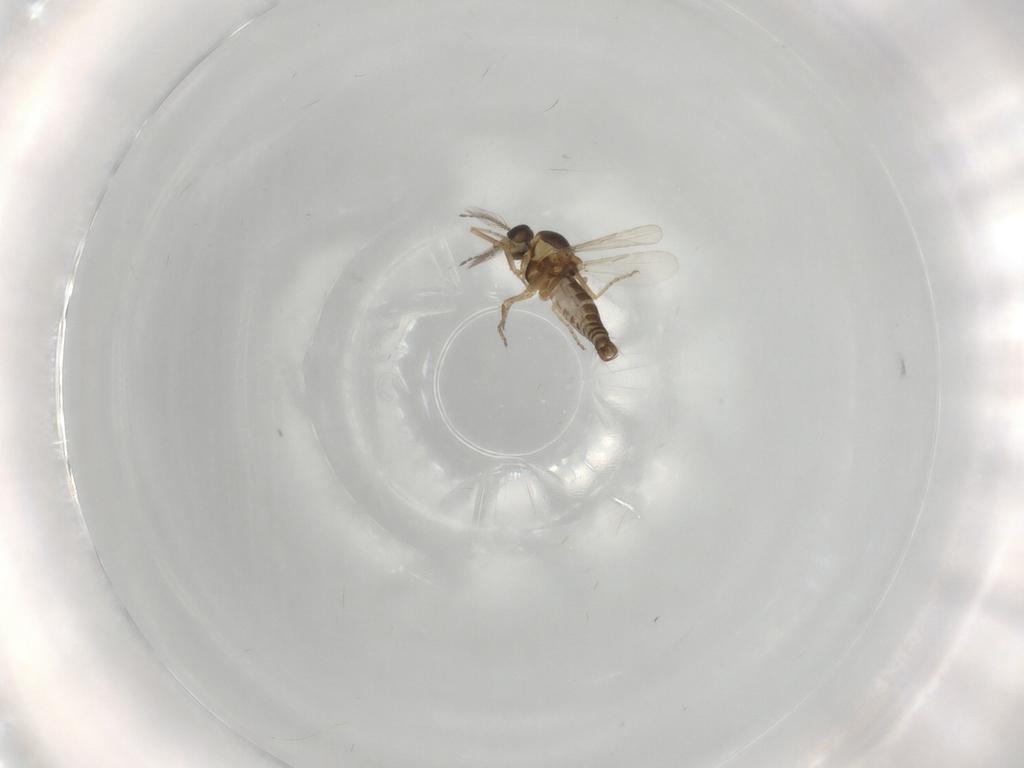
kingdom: Animalia
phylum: Arthropoda
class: Insecta
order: Diptera
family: Ceratopogonidae
